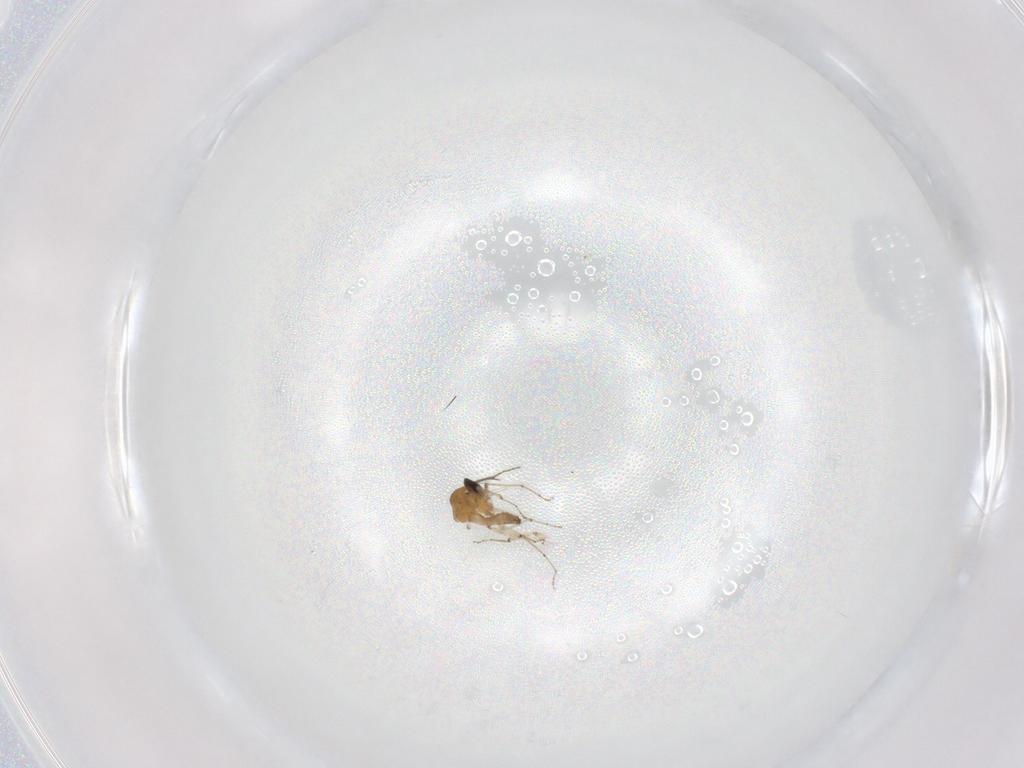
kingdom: Animalia
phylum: Arthropoda
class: Insecta
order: Diptera
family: Ceratopogonidae
